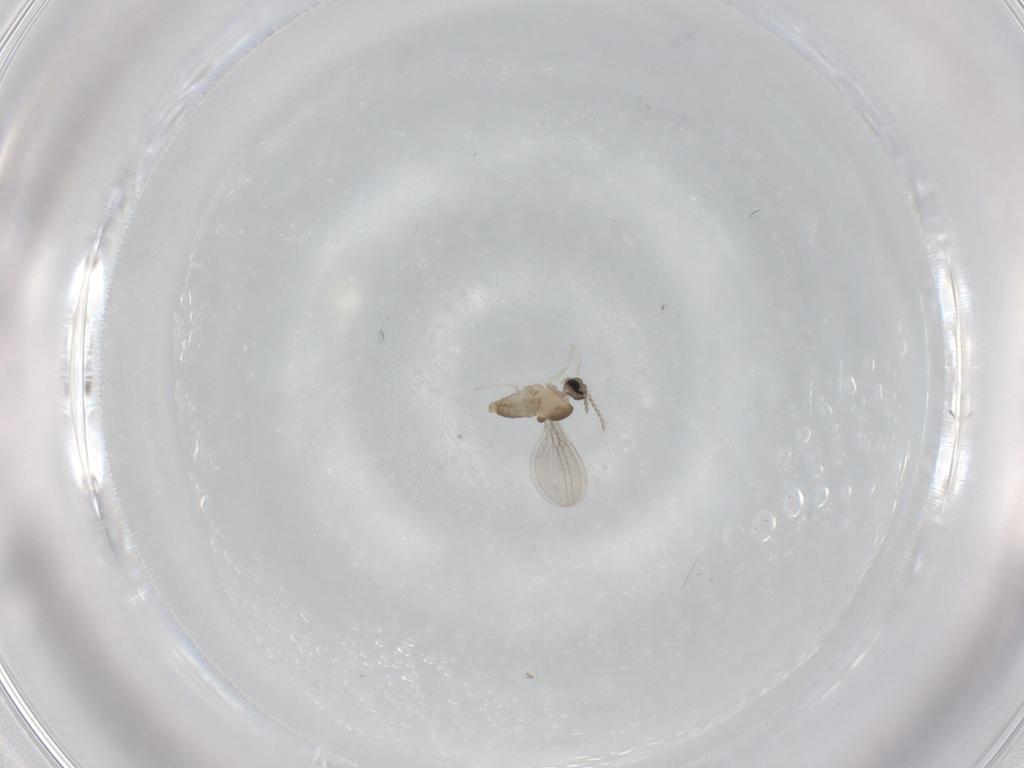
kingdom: Animalia
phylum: Arthropoda
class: Insecta
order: Diptera
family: Cecidomyiidae
